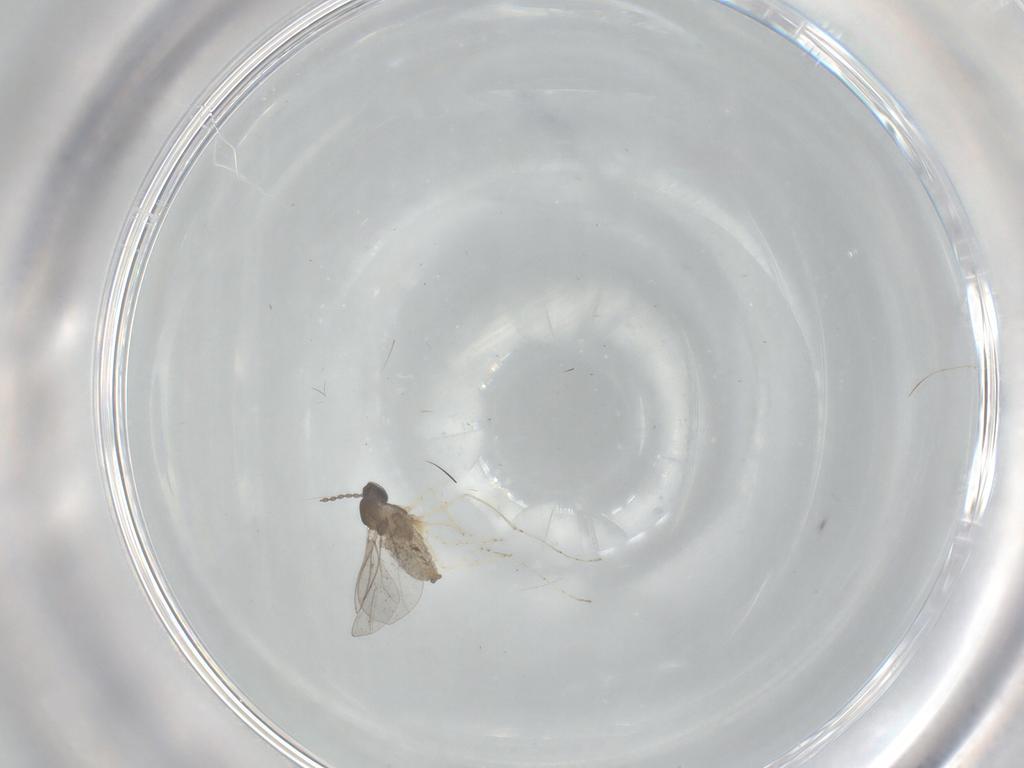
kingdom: Animalia
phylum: Arthropoda
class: Insecta
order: Diptera
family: Cecidomyiidae
